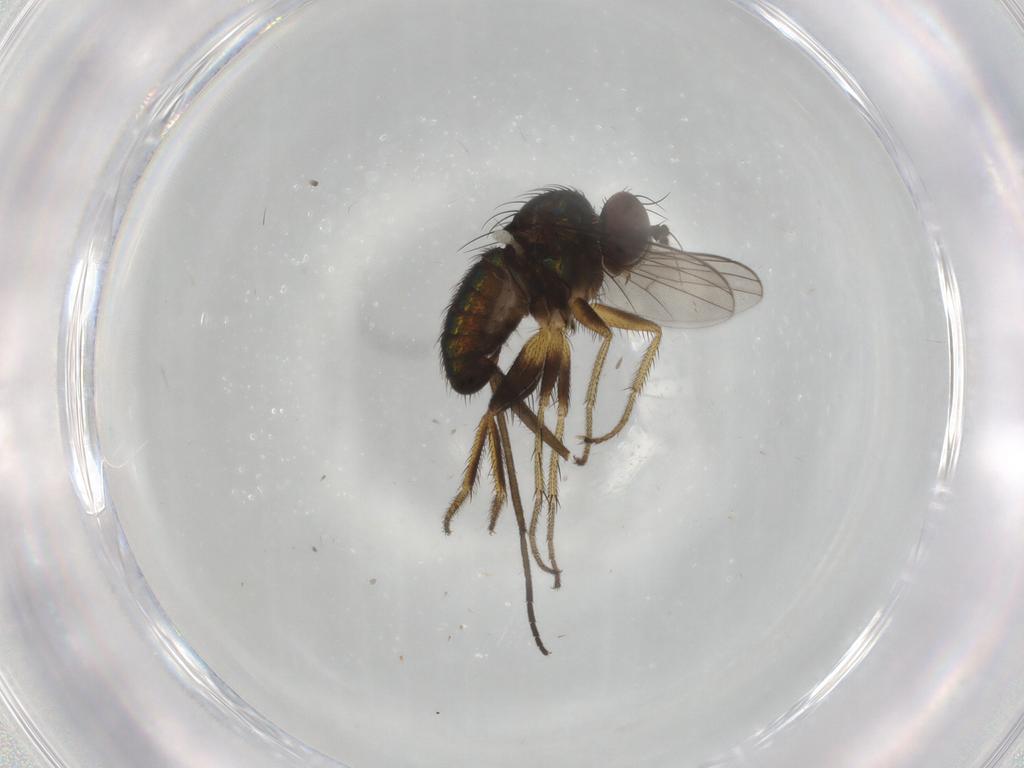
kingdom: Animalia
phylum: Arthropoda
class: Insecta
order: Diptera
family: Dolichopodidae
